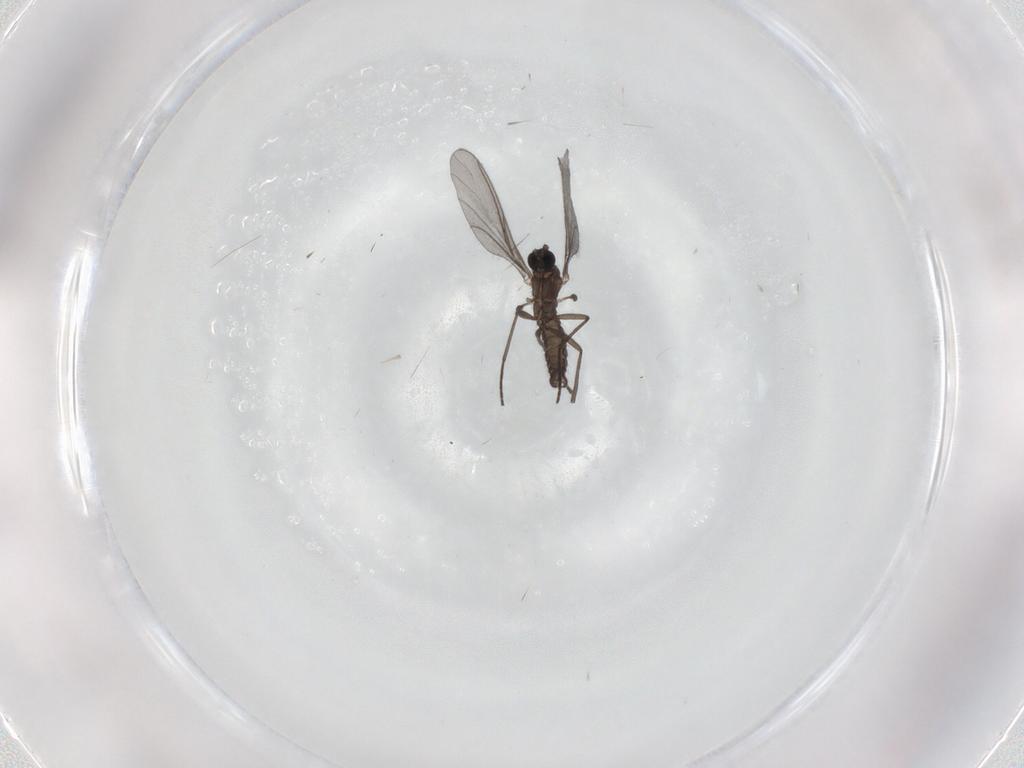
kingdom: Animalia
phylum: Arthropoda
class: Insecta
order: Diptera
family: Sciaridae
